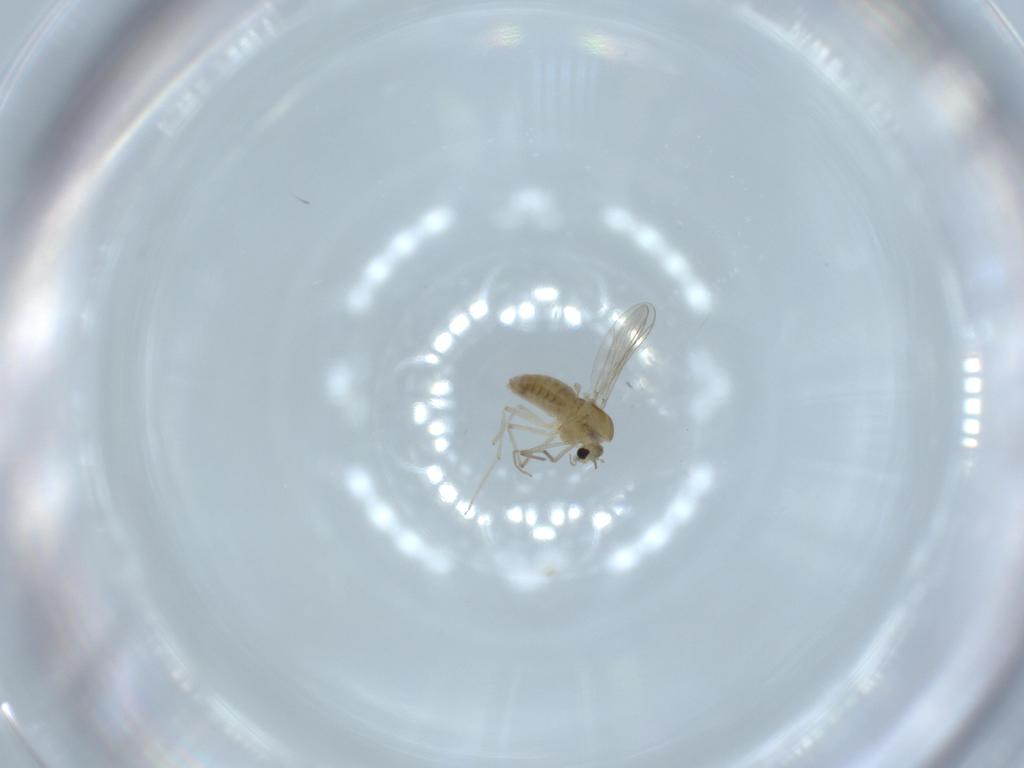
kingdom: Animalia
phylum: Arthropoda
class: Insecta
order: Diptera
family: Chironomidae
